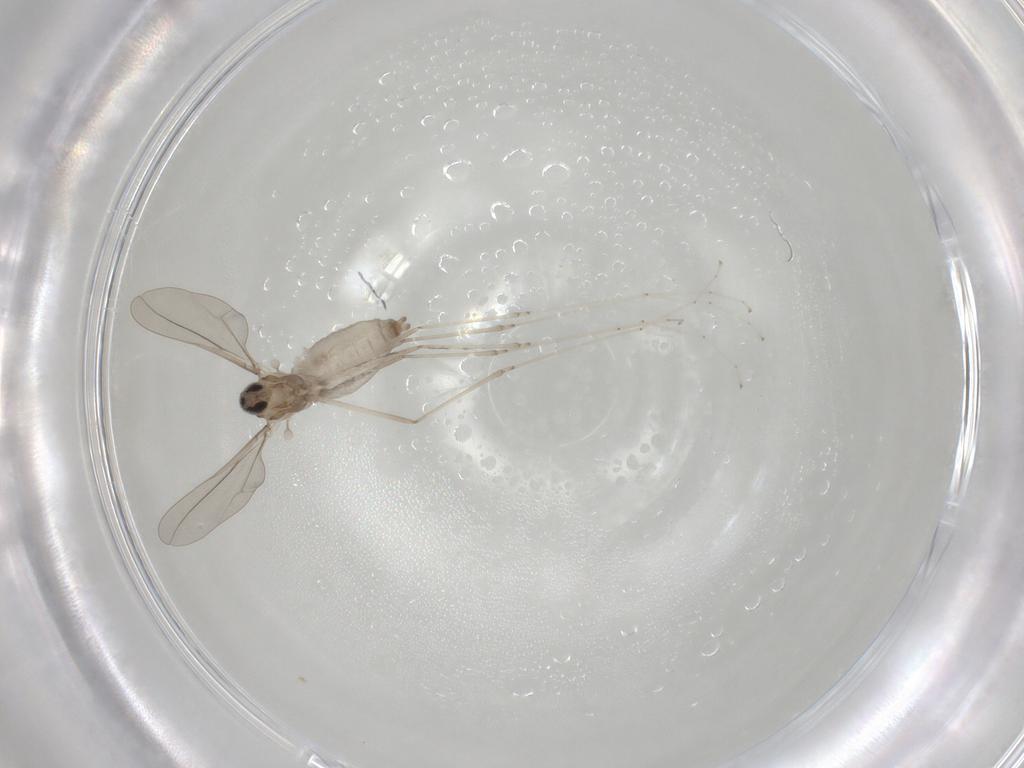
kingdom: Animalia
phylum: Arthropoda
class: Insecta
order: Diptera
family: Cecidomyiidae
